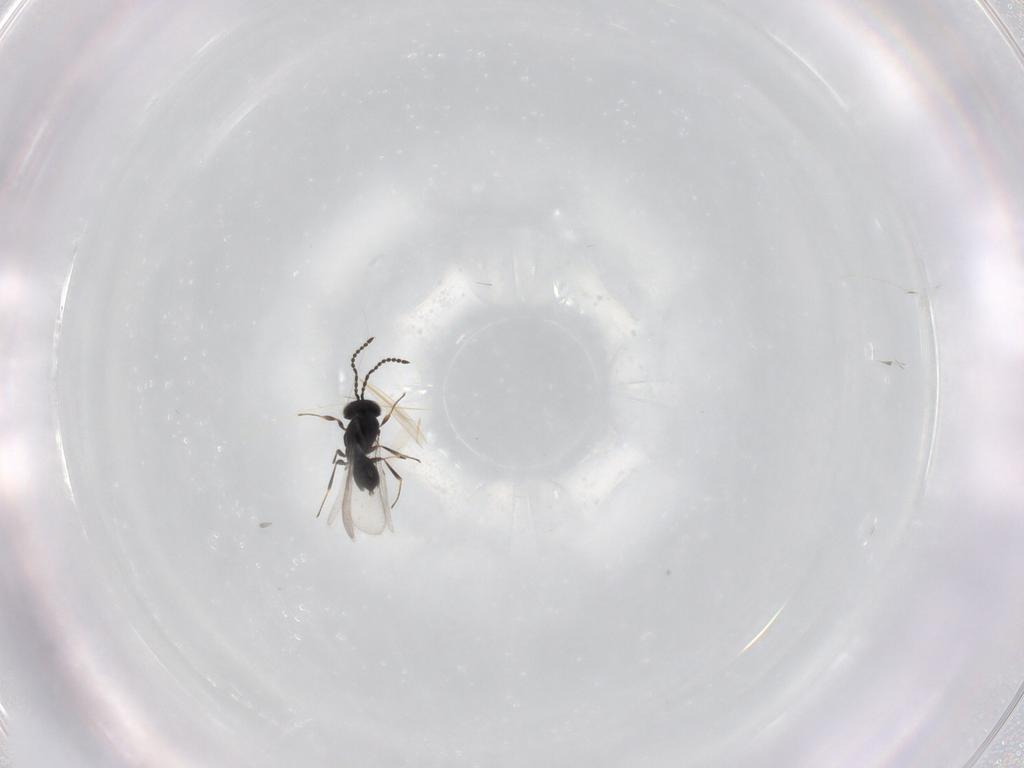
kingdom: Animalia
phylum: Arthropoda
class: Insecta
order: Hymenoptera
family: Scelionidae
